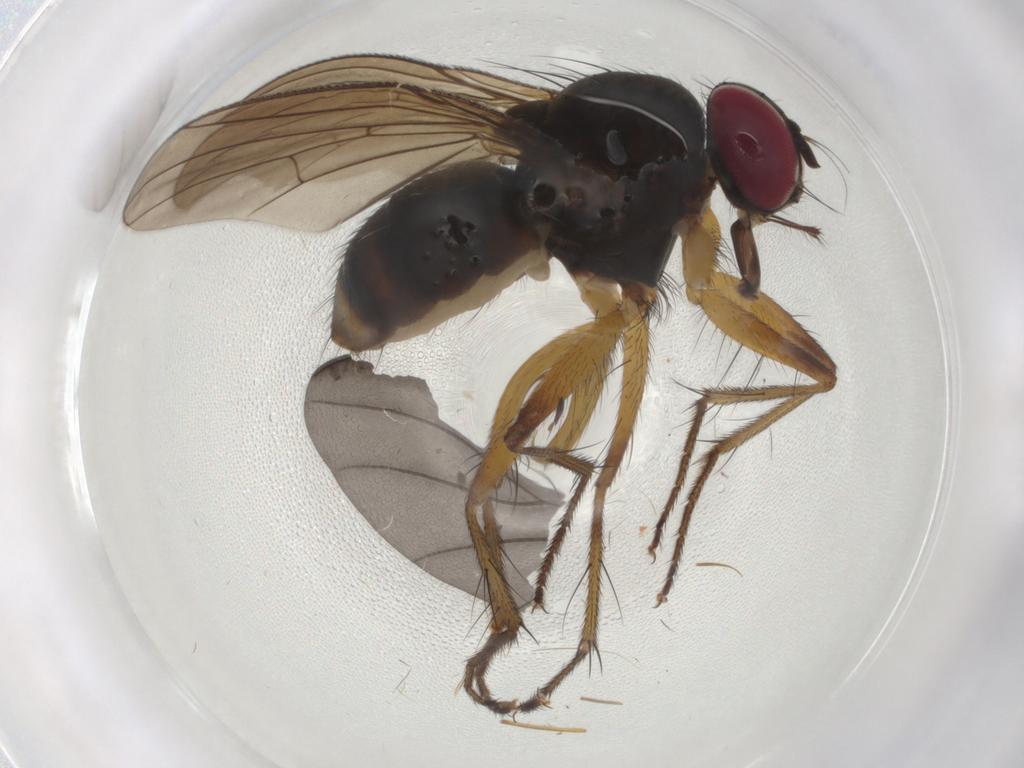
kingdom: Animalia
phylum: Arthropoda
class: Insecta
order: Diptera
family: Anthomyiidae
